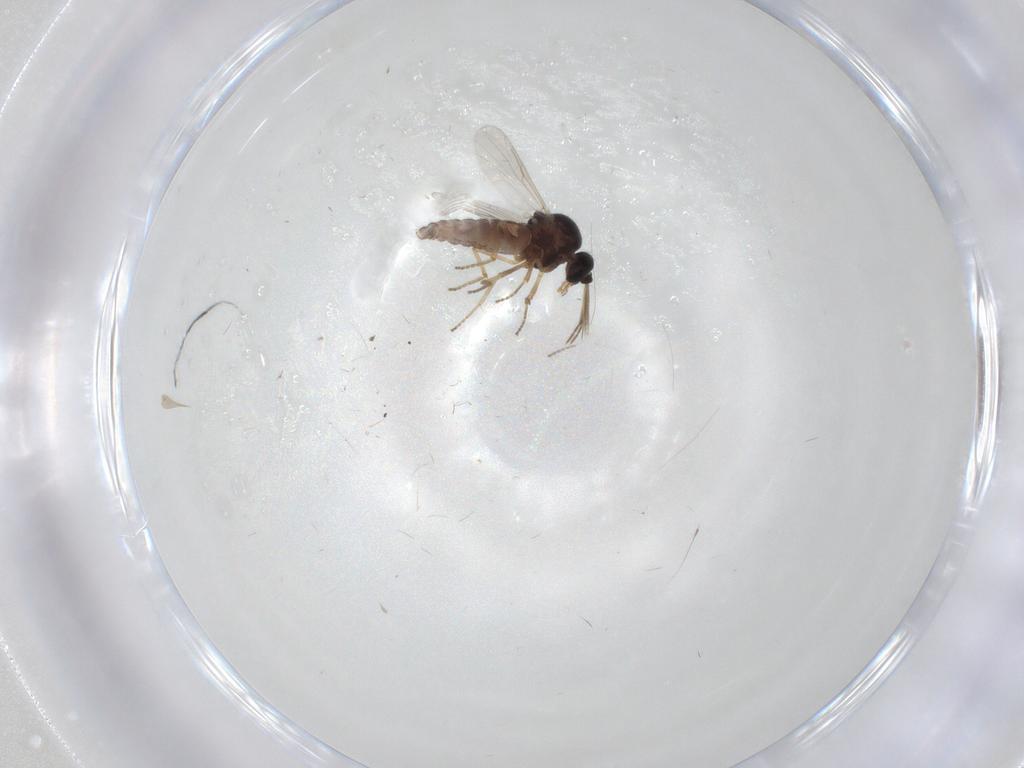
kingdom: Animalia
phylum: Arthropoda
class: Insecta
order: Diptera
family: Ceratopogonidae
